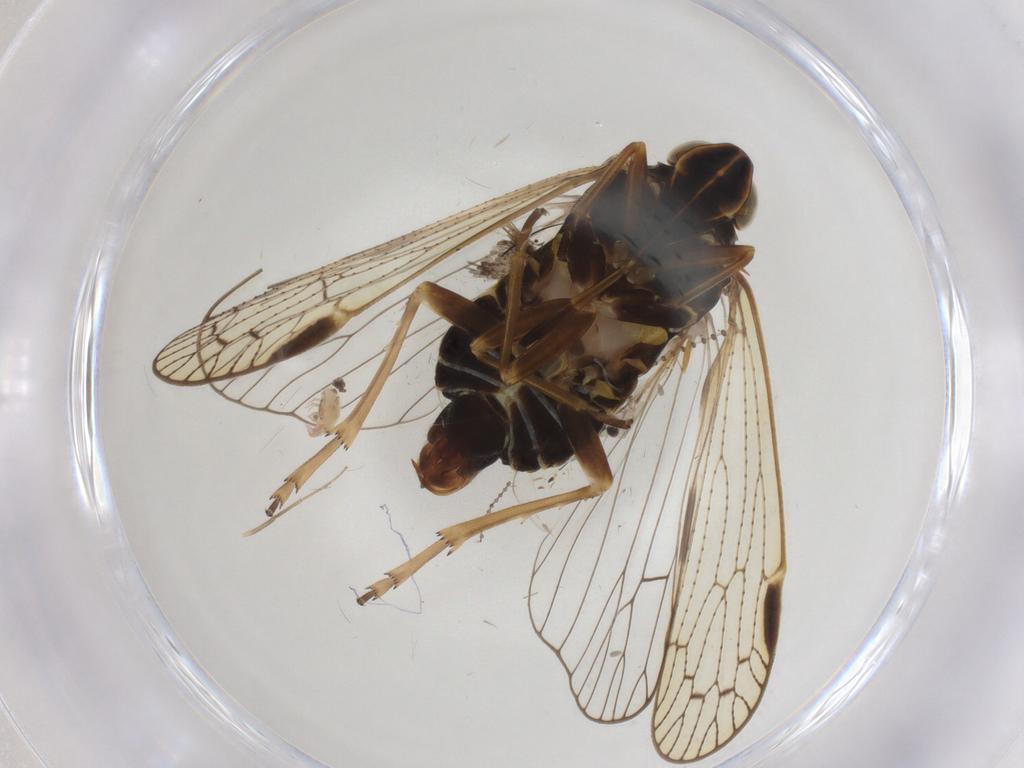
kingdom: Animalia
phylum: Arthropoda
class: Insecta
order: Hemiptera
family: Cixiidae
